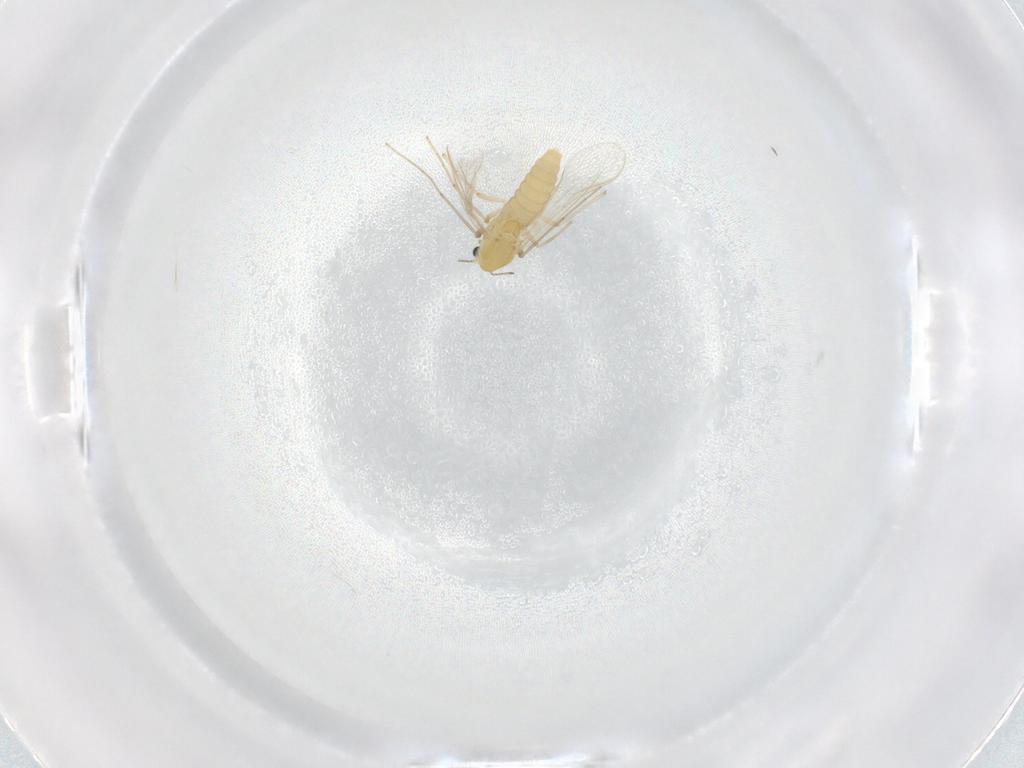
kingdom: Animalia
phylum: Arthropoda
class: Insecta
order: Diptera
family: Chironomidae
